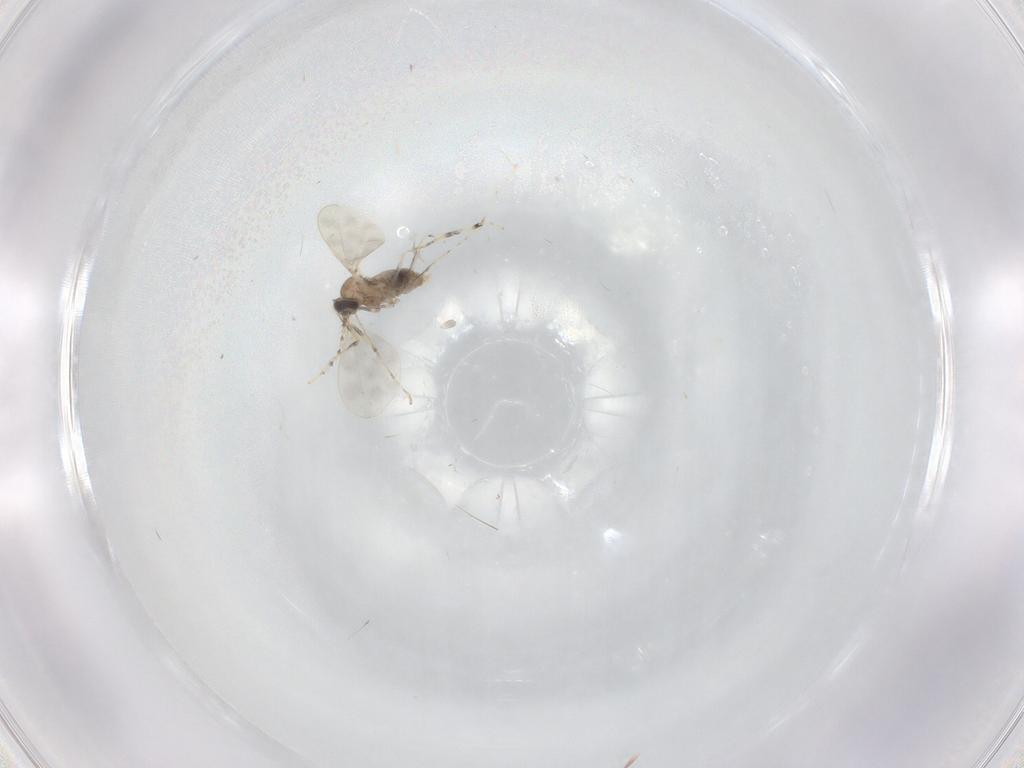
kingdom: Animalia
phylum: Arthropoda
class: Insecta
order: Diptera
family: Cecidomyiidae
